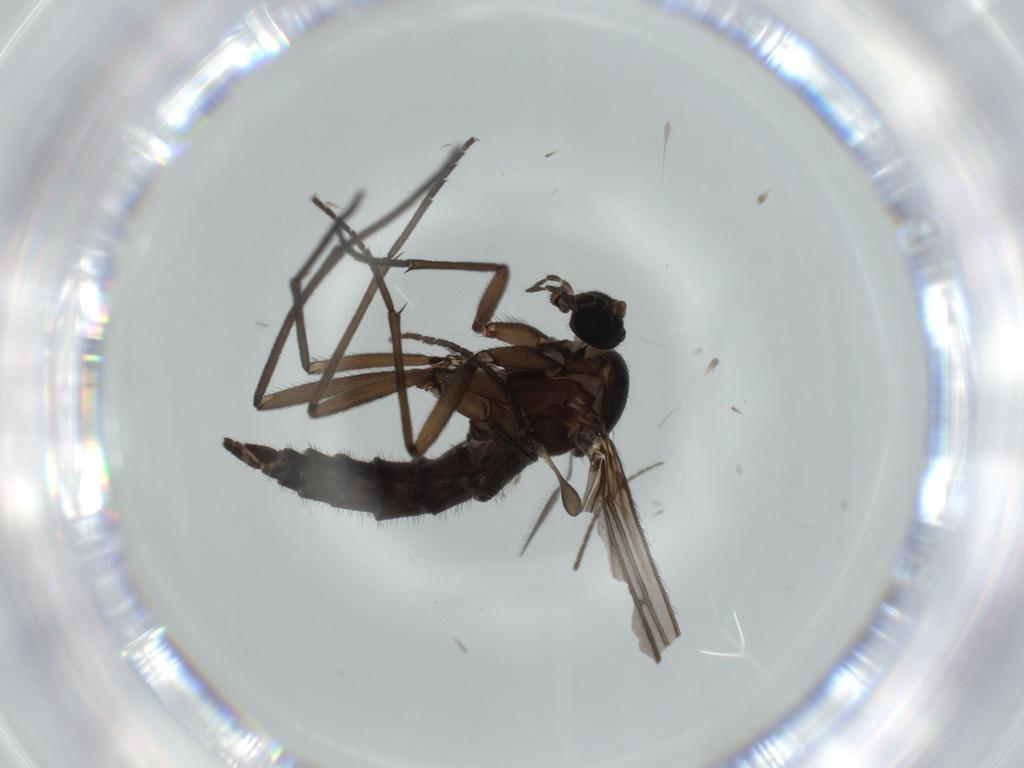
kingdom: Animalia
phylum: Arthropoda
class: Insecta
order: Diptera
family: Sciaridae
